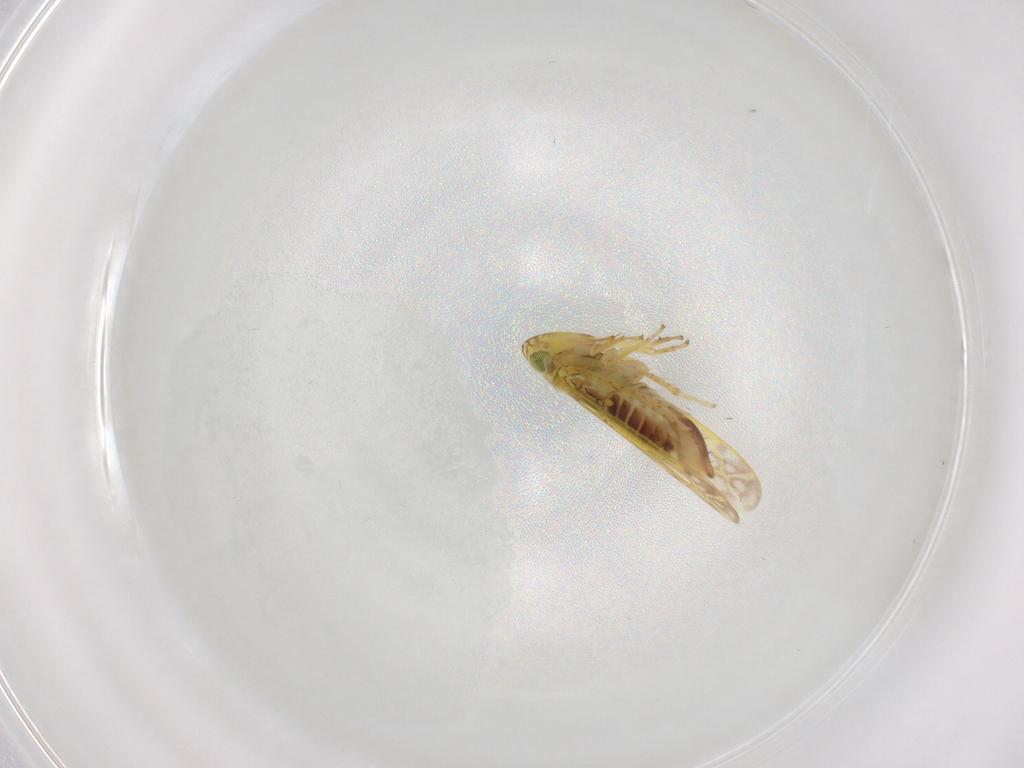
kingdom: Animalia
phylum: Arthropoda
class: Insecta
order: Hemiptera
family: Cicadellidae
